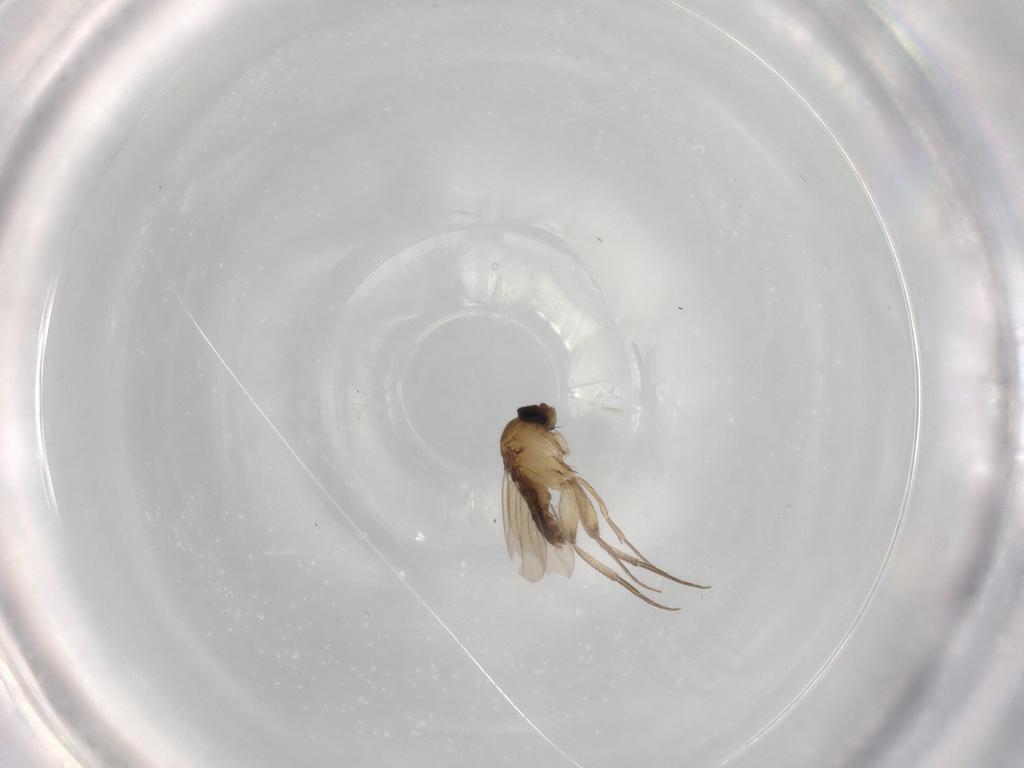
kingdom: Animalia
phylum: Arthropoda
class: Insecta
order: Diptera
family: Phoridae
